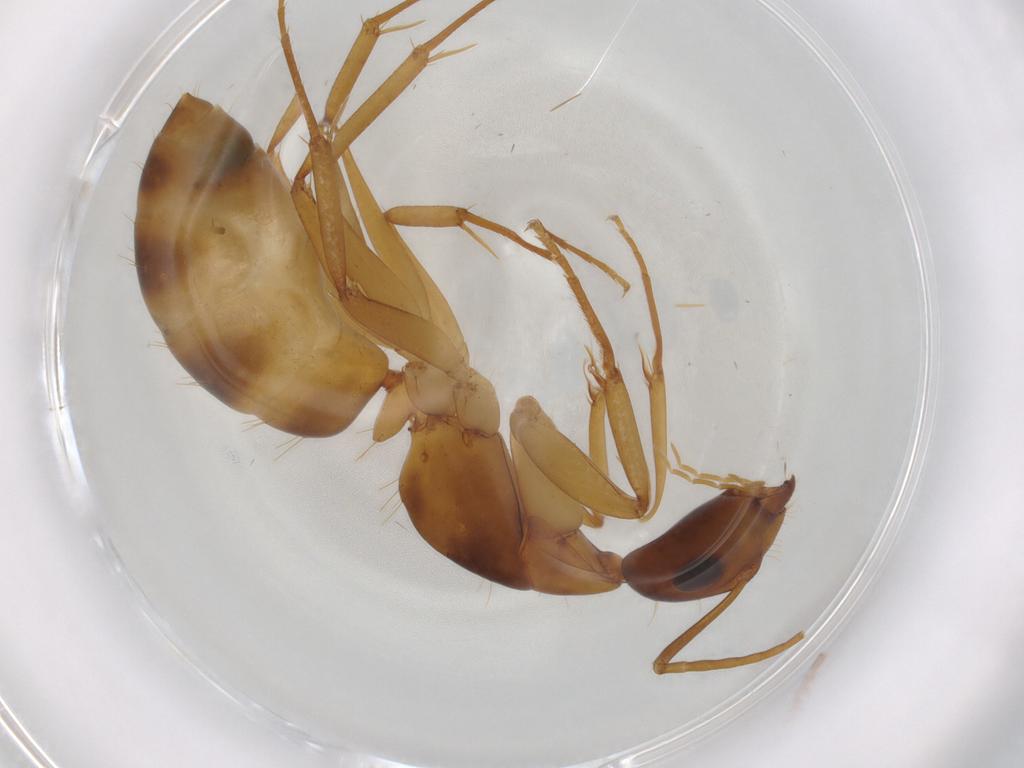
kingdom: Animalia
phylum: Arthropoda
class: Insecta
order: Hymenoptera
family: Formicidae
